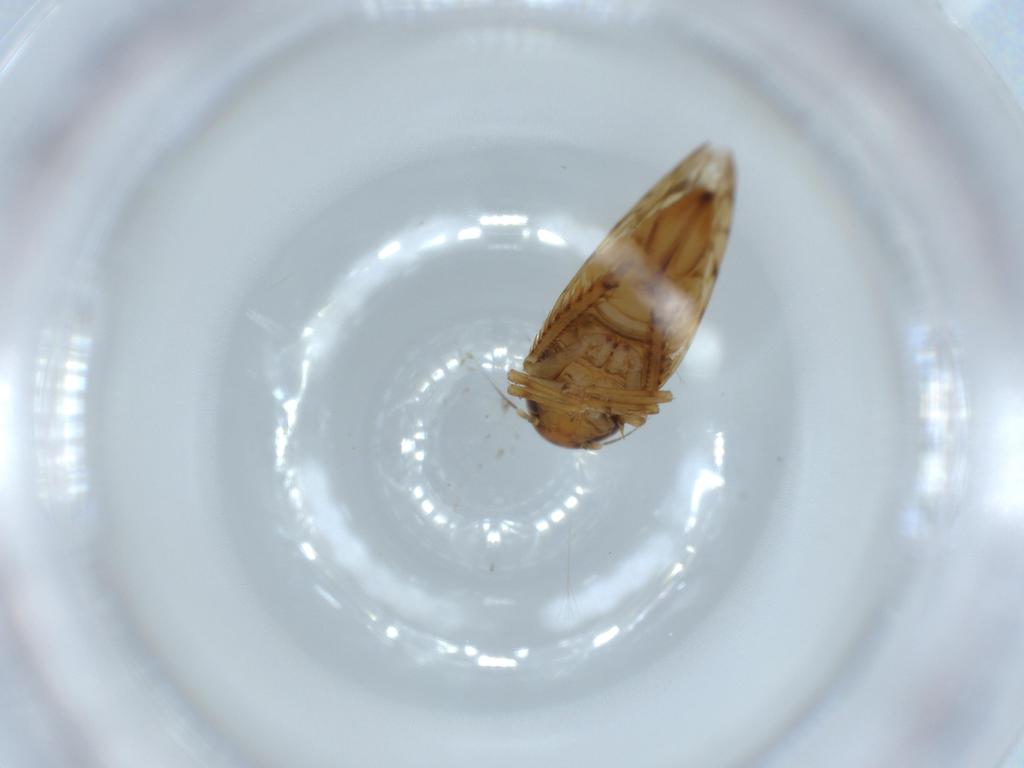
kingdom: Animalia
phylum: Arthropoda
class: Insecta
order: Hemiptera
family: Cicadellidae
